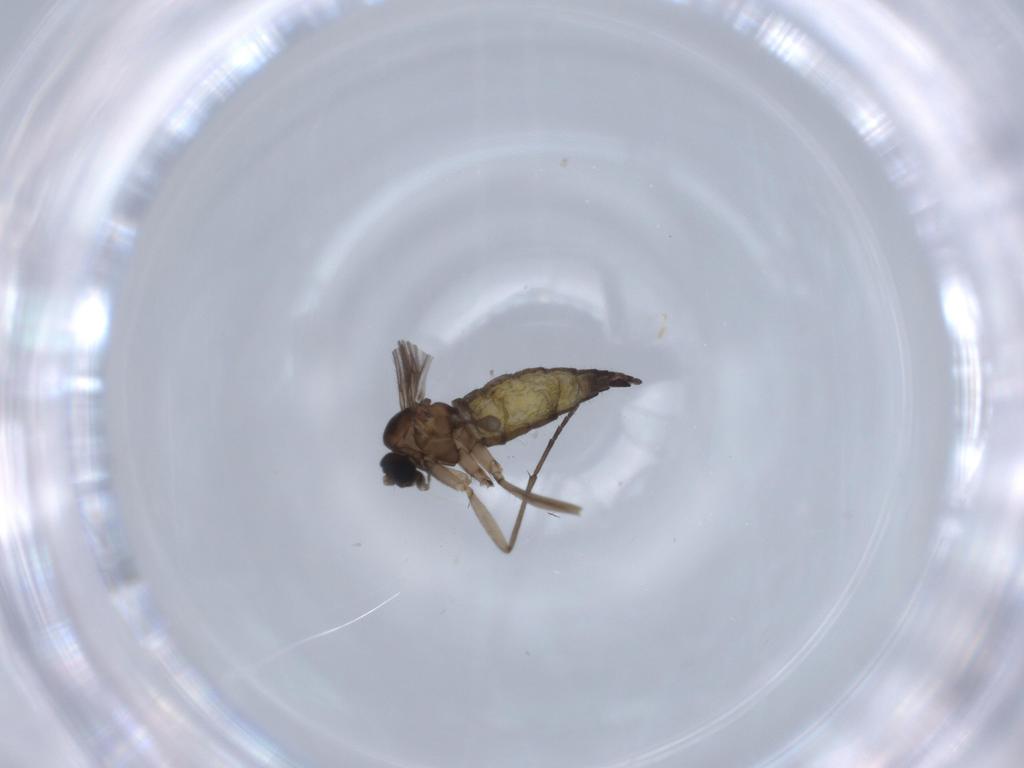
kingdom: Animalia
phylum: Arthropoda
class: Insecta
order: Diptera
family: Sciaridae
